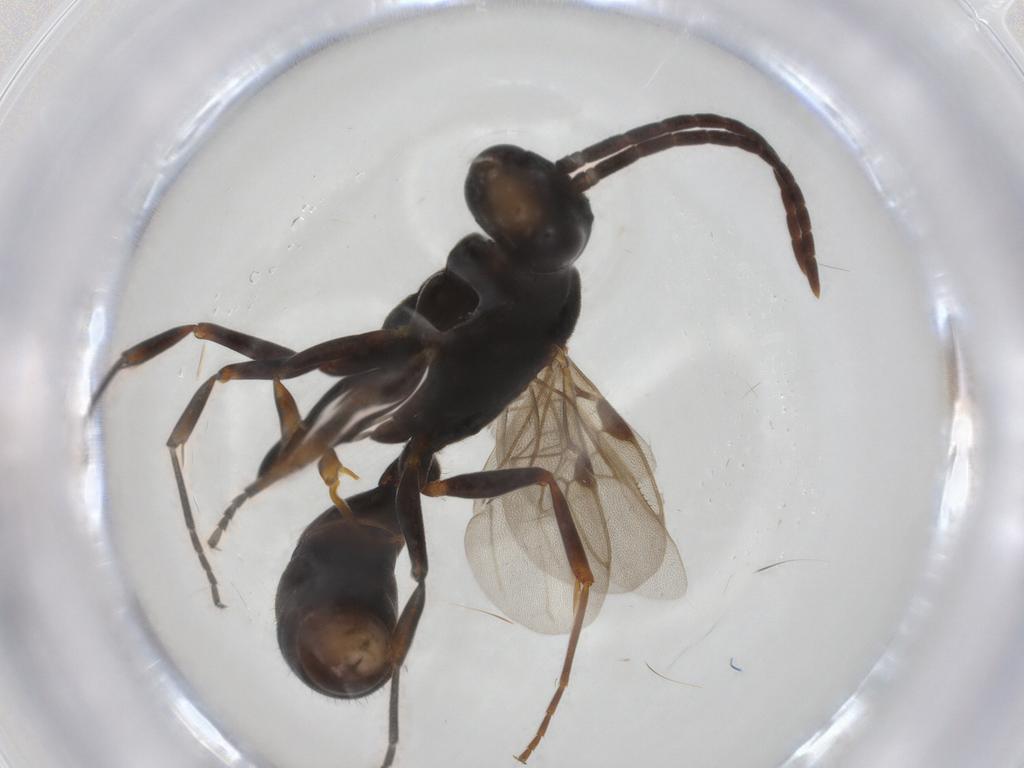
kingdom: Animalia
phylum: Arthropoda
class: Insecta
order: Hymenoptera
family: Formicidae
